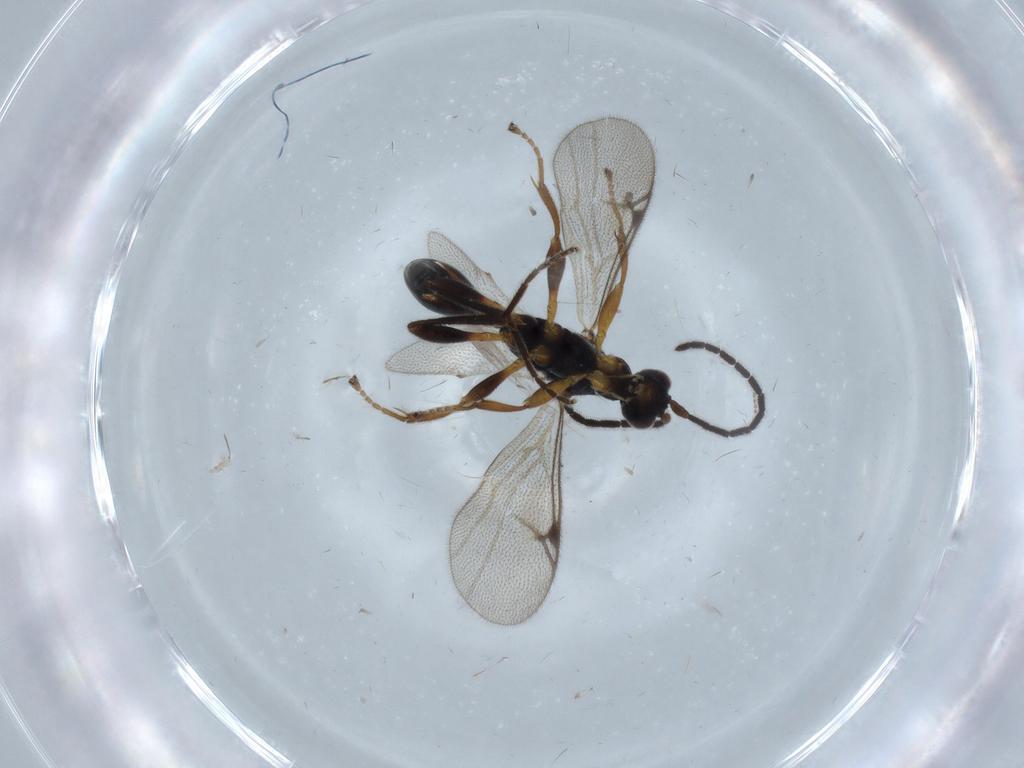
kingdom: Animalia
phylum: Arthropoda
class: Insecta
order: Hymenoptera
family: Proctotrupidae
